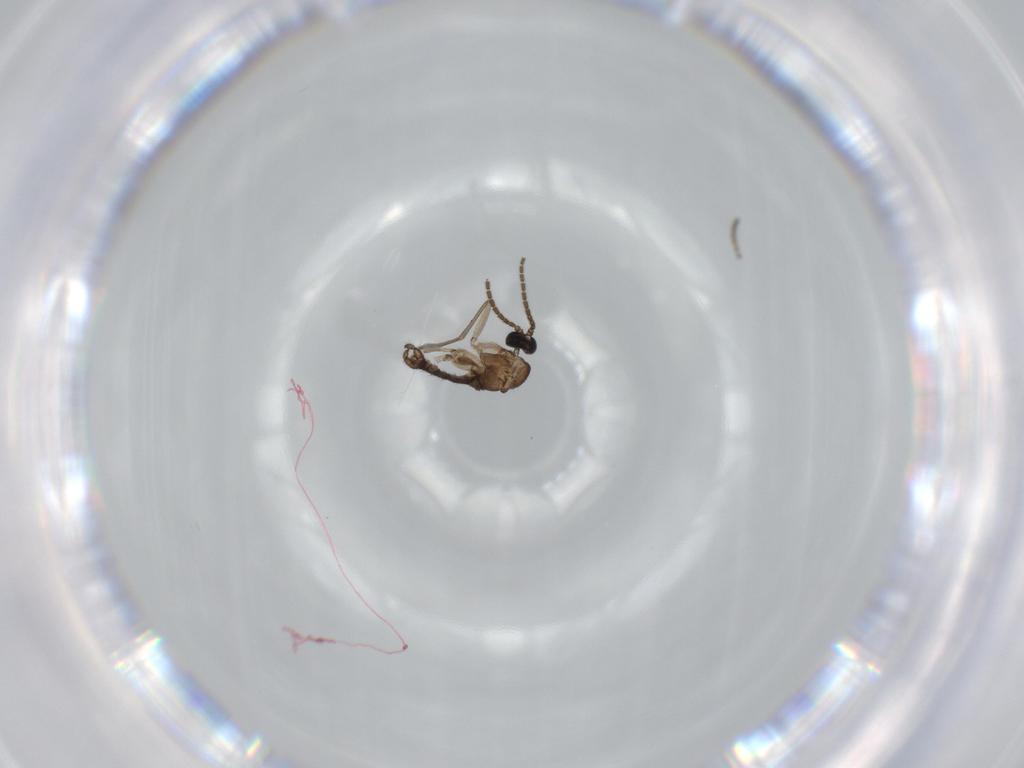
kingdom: Animalia
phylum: Arthropoda
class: Insecta
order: Diptera
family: Sciaridae
